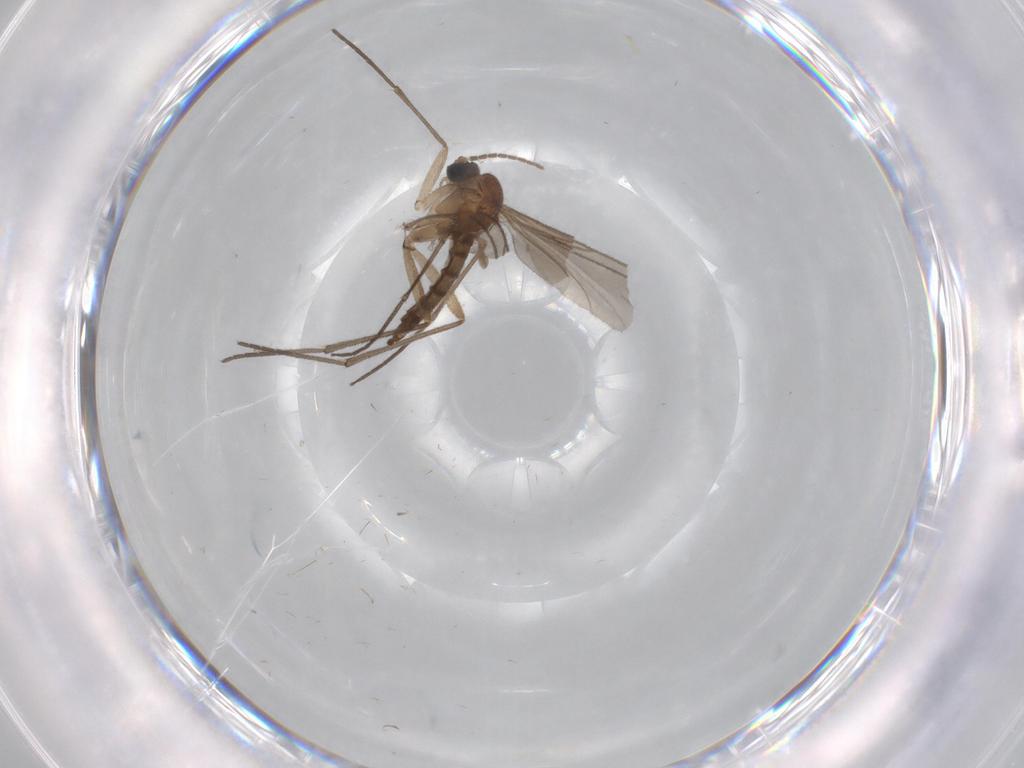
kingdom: Animalia
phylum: Arthropoda
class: Insecta
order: Diptera
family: Sciaridae
